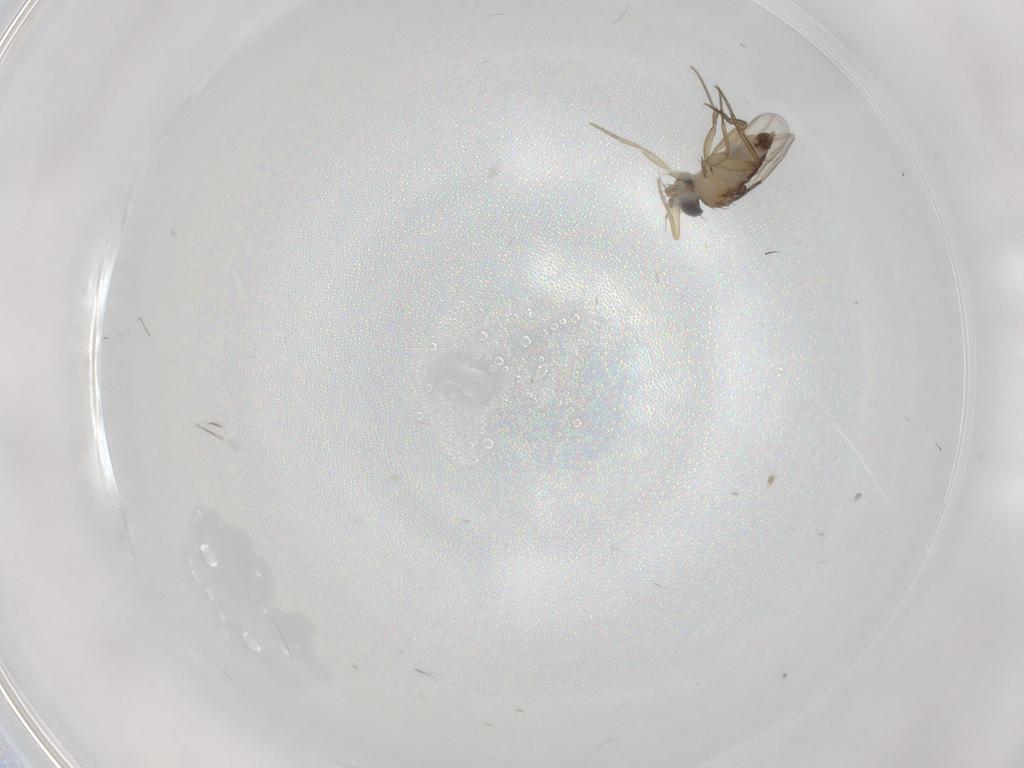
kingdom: Animalia
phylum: Arthropoda
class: Insecta
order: Diptera
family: Phoridae
